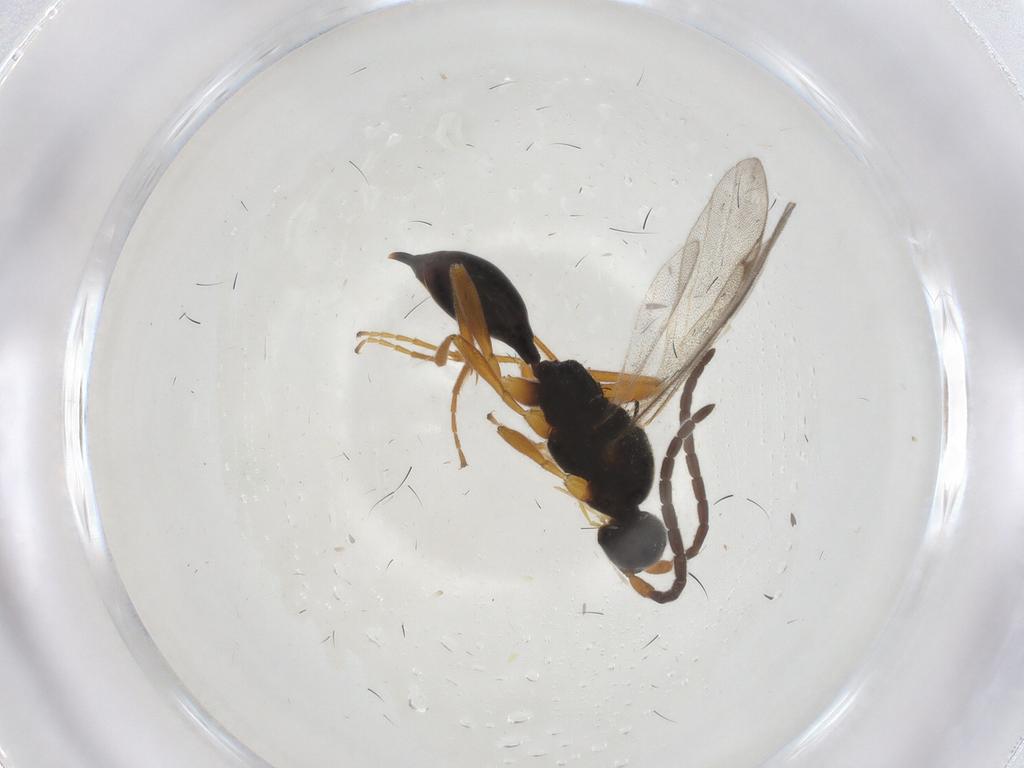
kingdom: Animalia
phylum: Arthropoda
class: Insecta
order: Hymenoptera
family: Proctotrupidae
